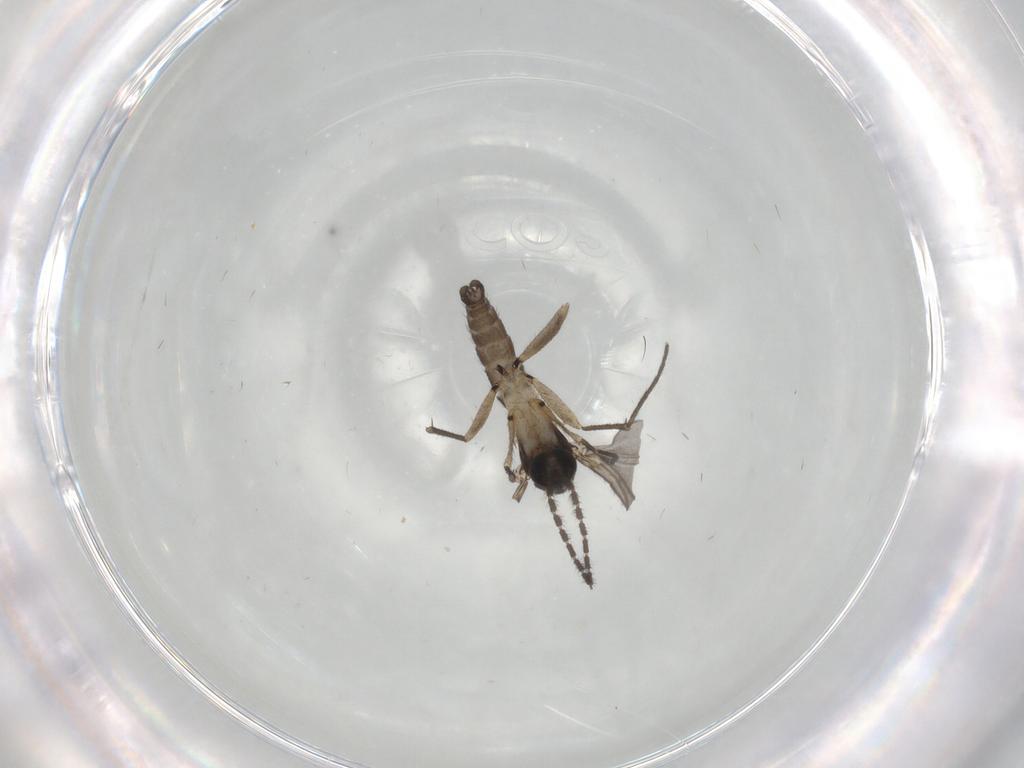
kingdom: Animalia
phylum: Arthropoda
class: Insecta
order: Diptera
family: Sciaridae
